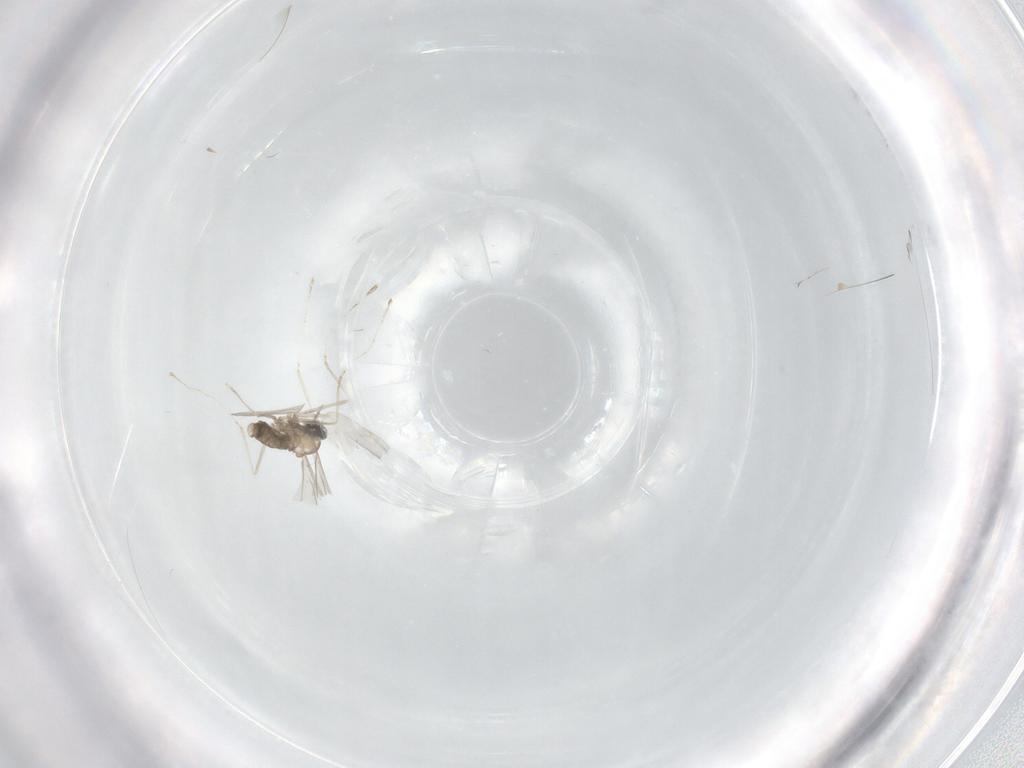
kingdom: Animalia
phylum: Arthropoda
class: Insecta
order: Diptera
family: Cecidomyiidae
